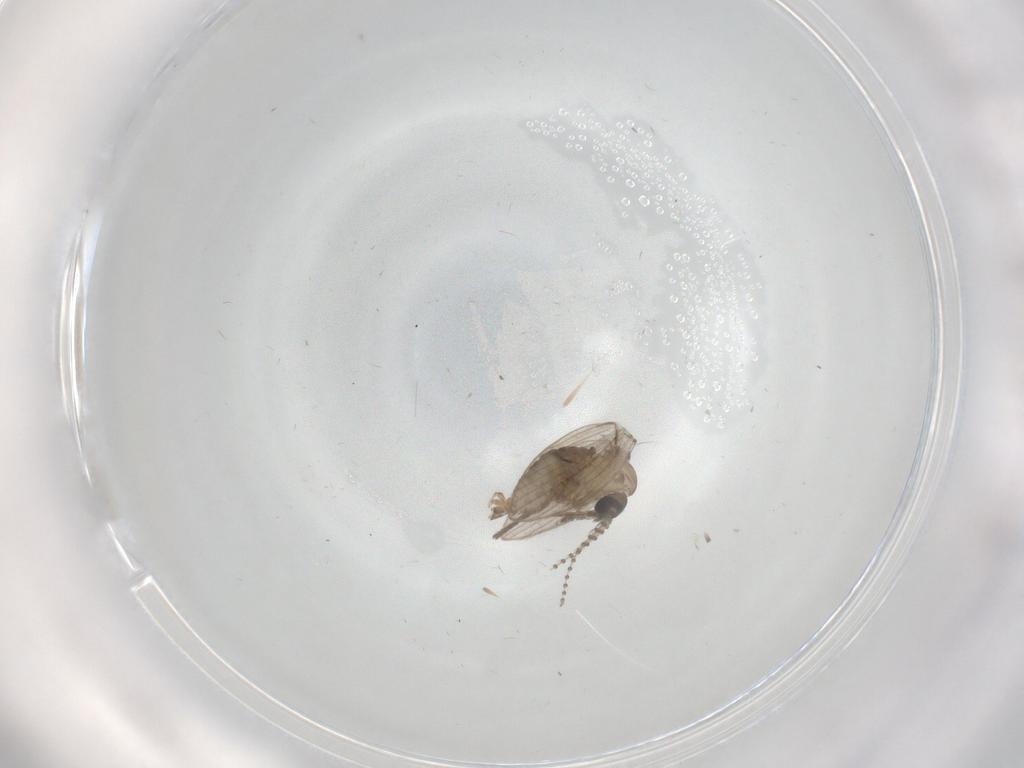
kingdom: Animalia
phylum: Arthropoda
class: Insecta
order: Diptera
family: Psychodidae
